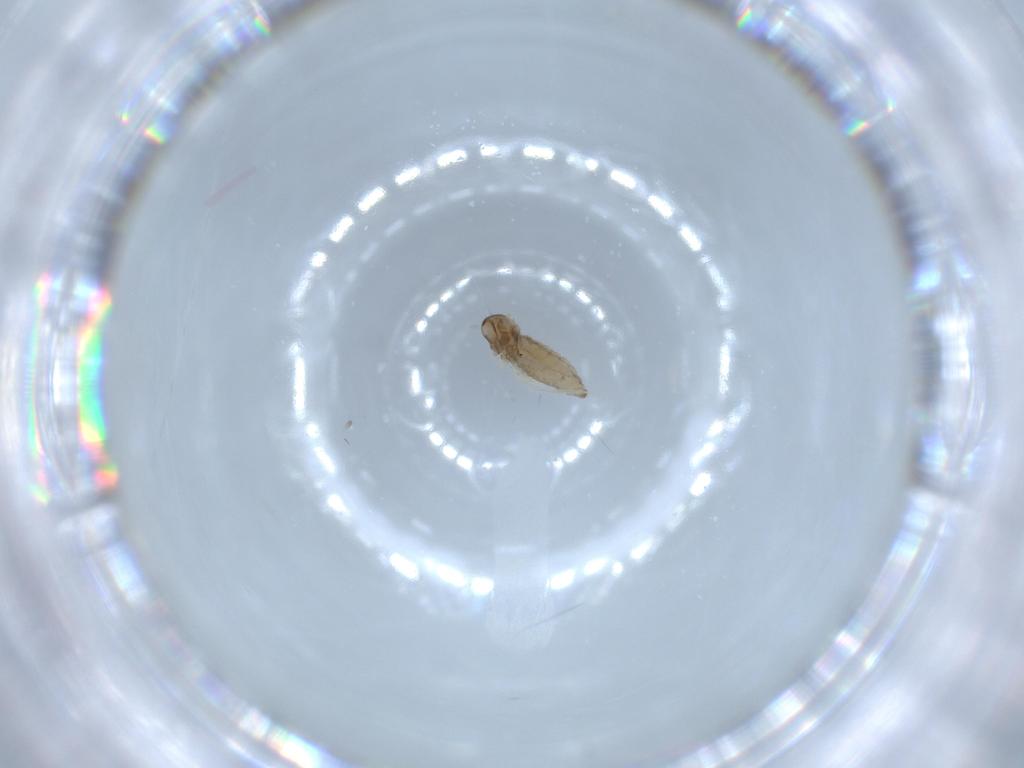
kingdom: Animalia
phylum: Arthropoda
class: Insecta
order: Diptera
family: Cecidomyiidae
